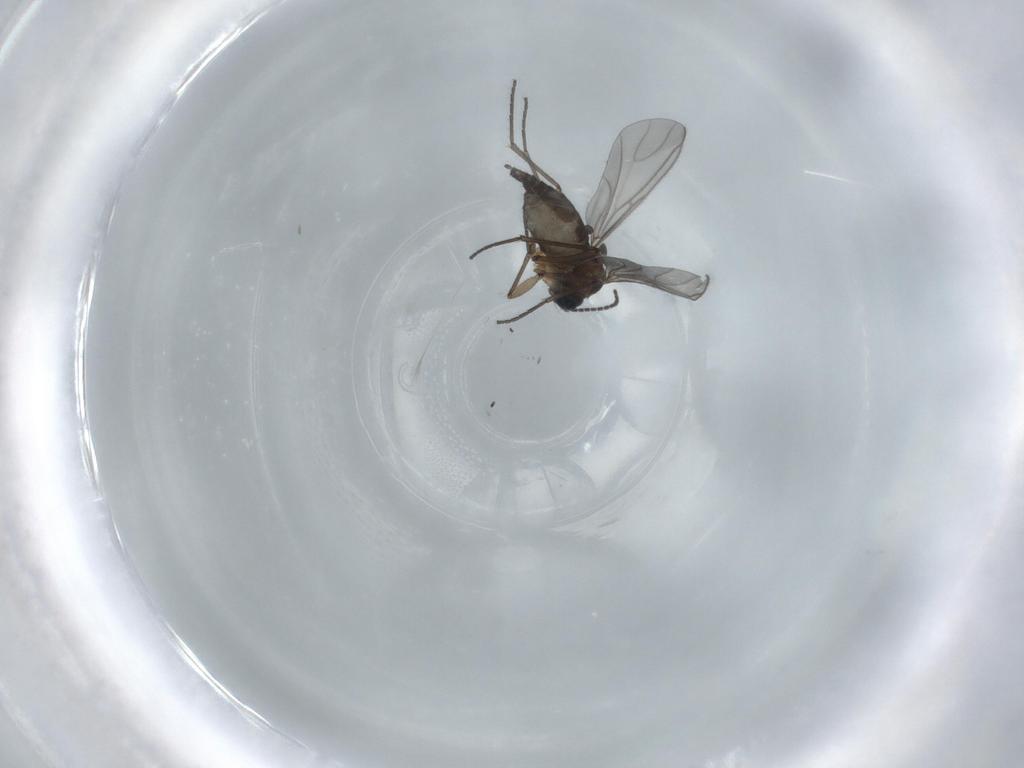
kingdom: Animalia
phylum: Arthropoda
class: Insecta
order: Diptera
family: Sciaridae
